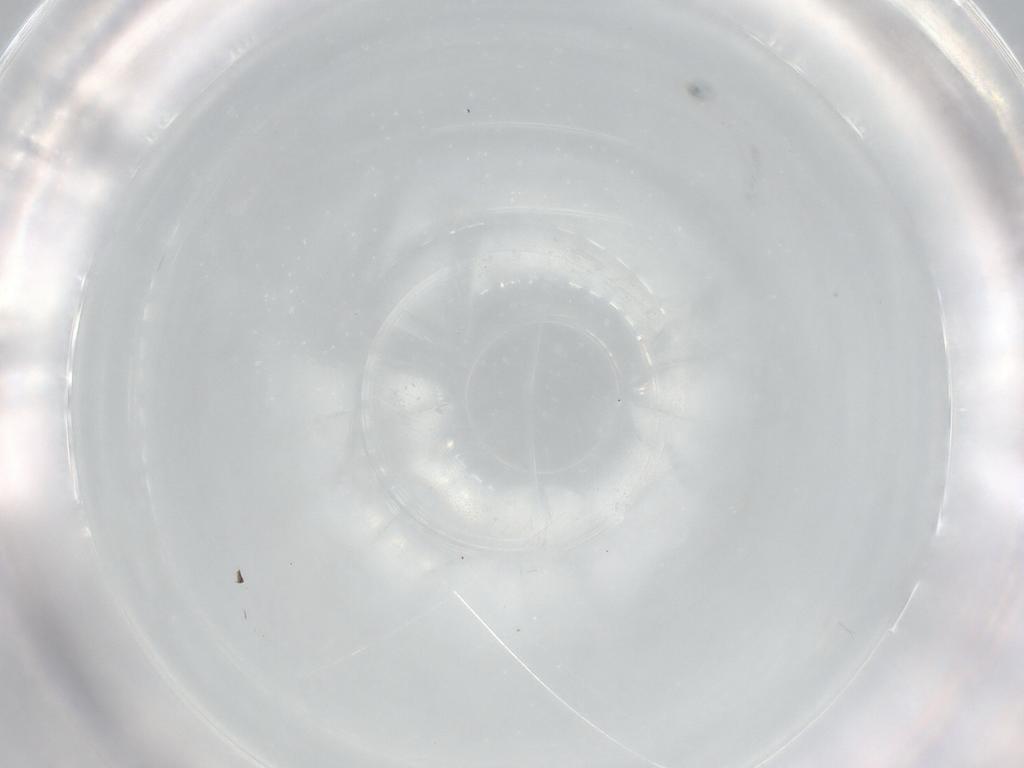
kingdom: Animalia
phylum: Arthropoda
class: Insecta
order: Diptera
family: Chironomidae
